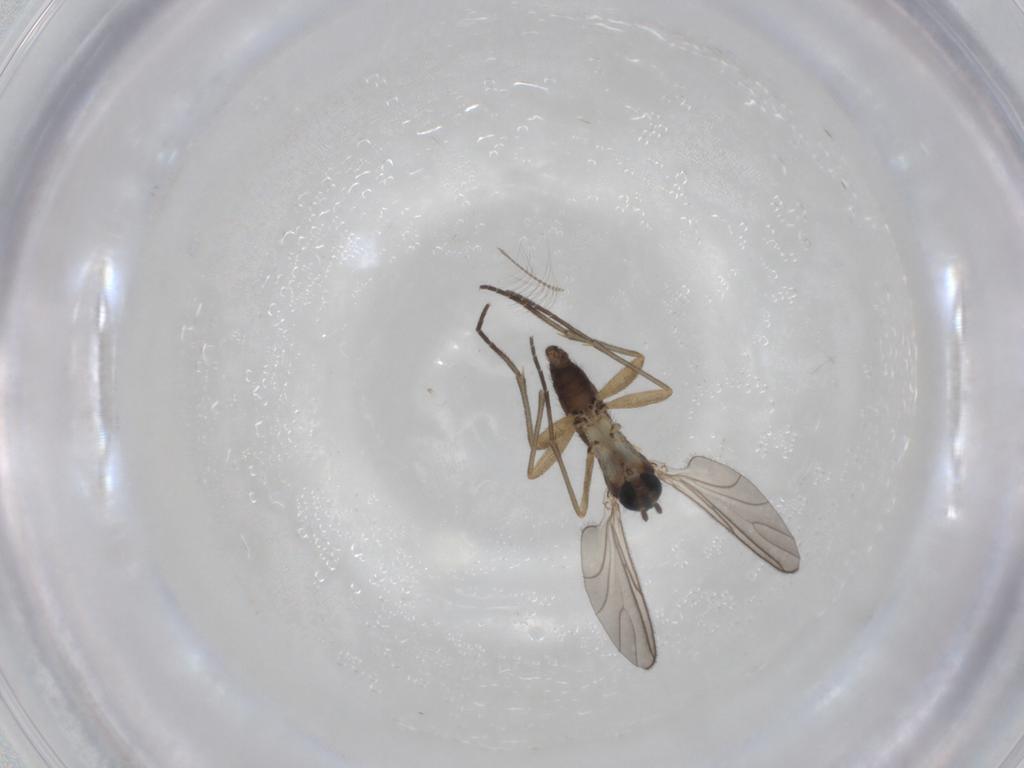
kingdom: Animalia
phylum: Arthropoda
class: Insecta
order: Diptera
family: Sciaridae
